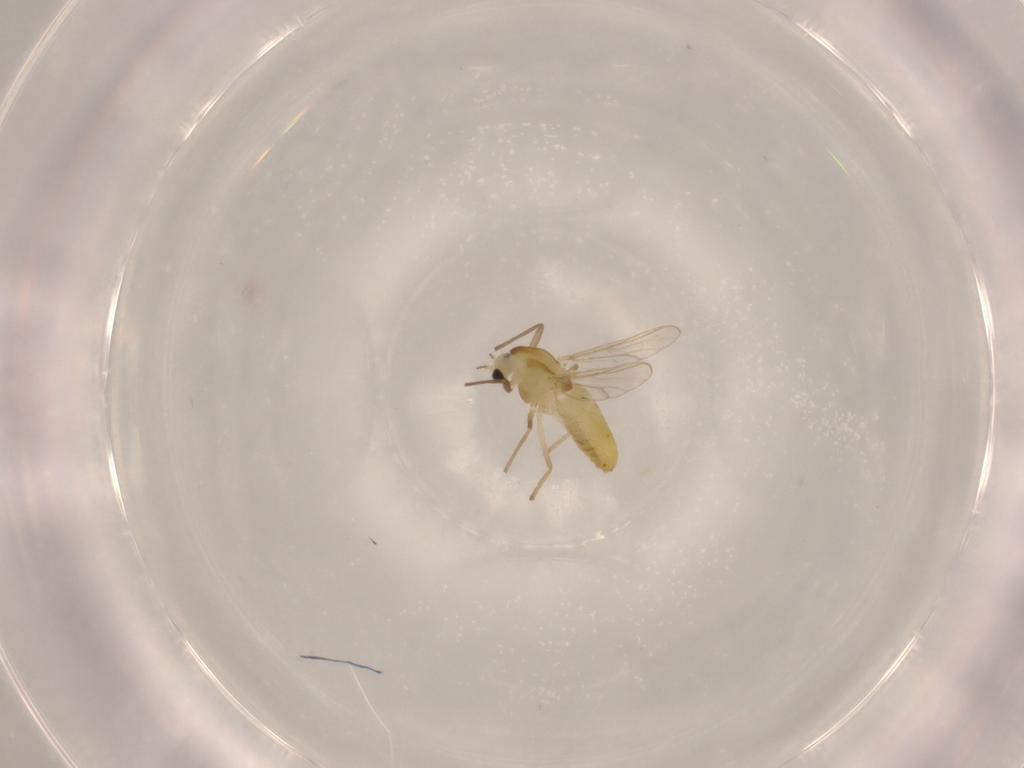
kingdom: Animalia
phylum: Arthropoda
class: Insecta
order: Diptera
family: Chironomidae
